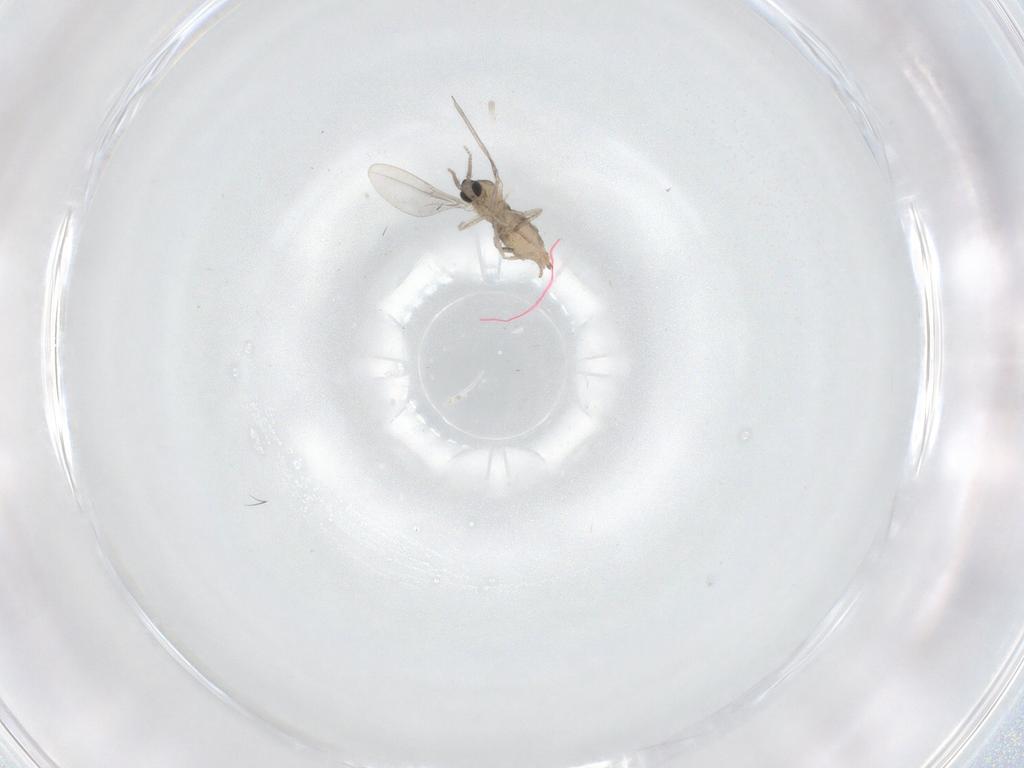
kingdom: Animalia
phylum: Arthropoda
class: Insecta
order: Diptera
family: Cecidomyiidae
